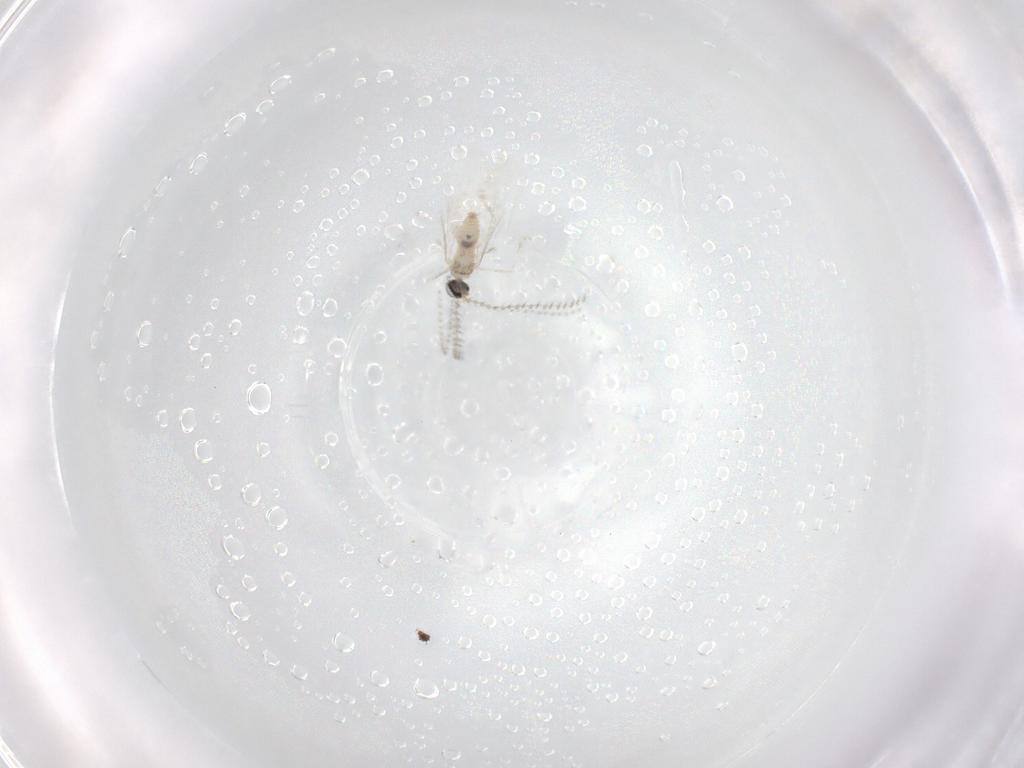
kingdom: Animalia
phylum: Arthropoda
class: Insecta
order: Diptera
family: Cecidomyiidae
